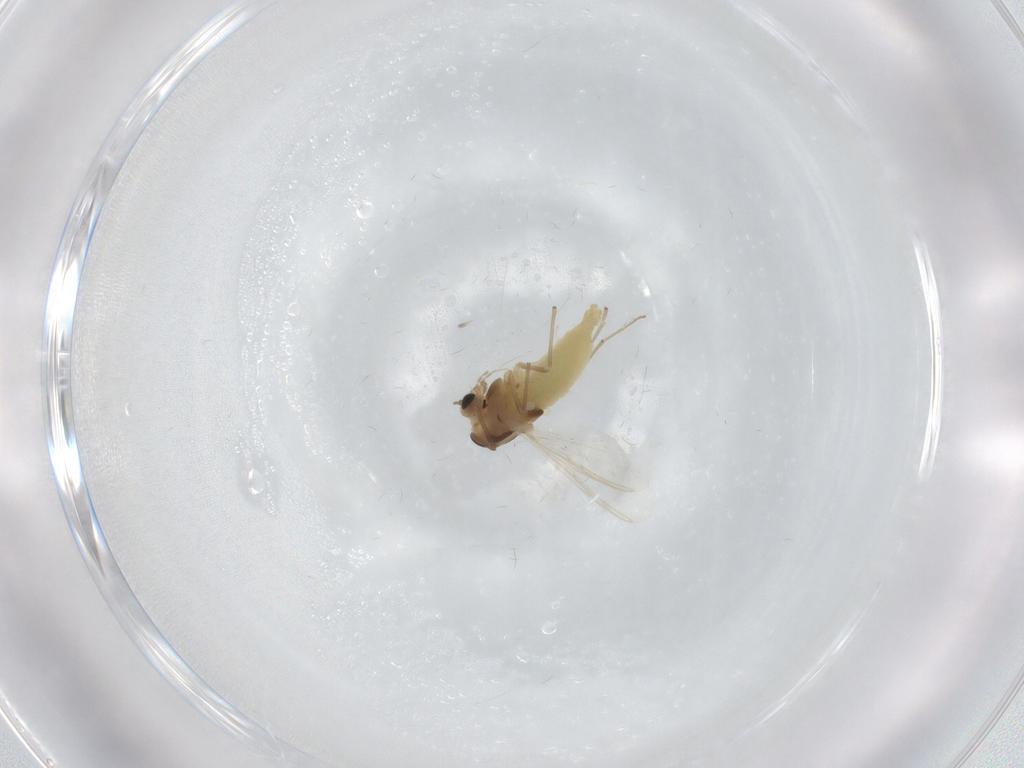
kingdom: Animalia
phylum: Arthropoda
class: Insecta
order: Diptera
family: Chironomidae
